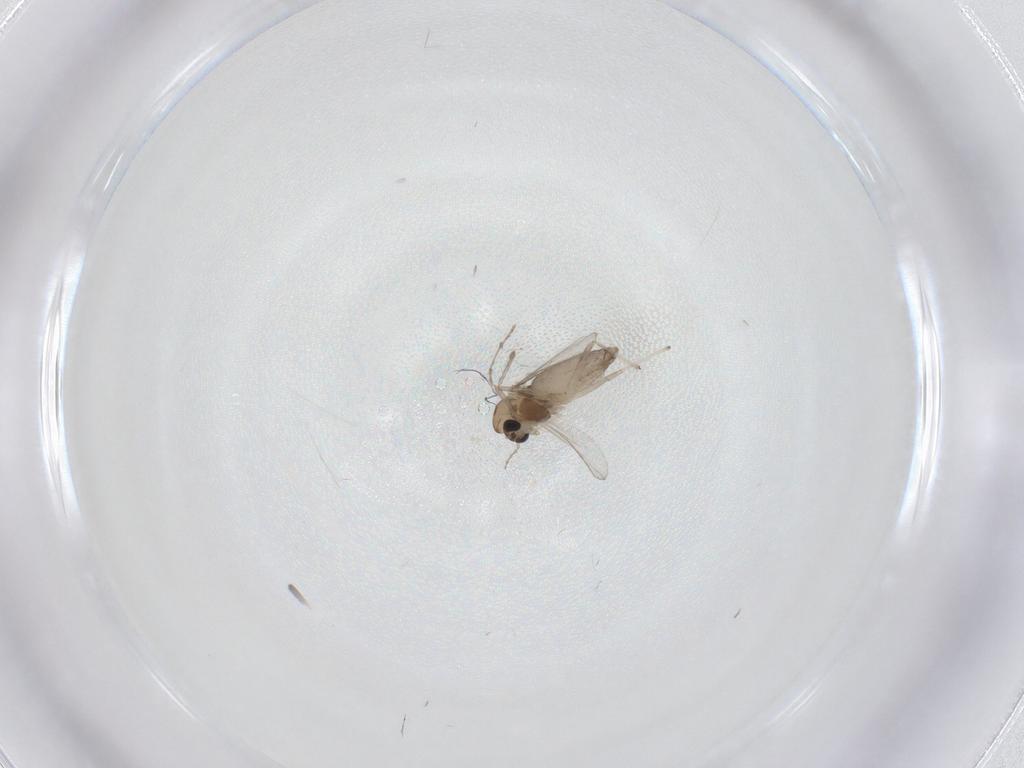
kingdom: Animalia
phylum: Arthropoda
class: Insecta
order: Diptera
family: Chironomidae
